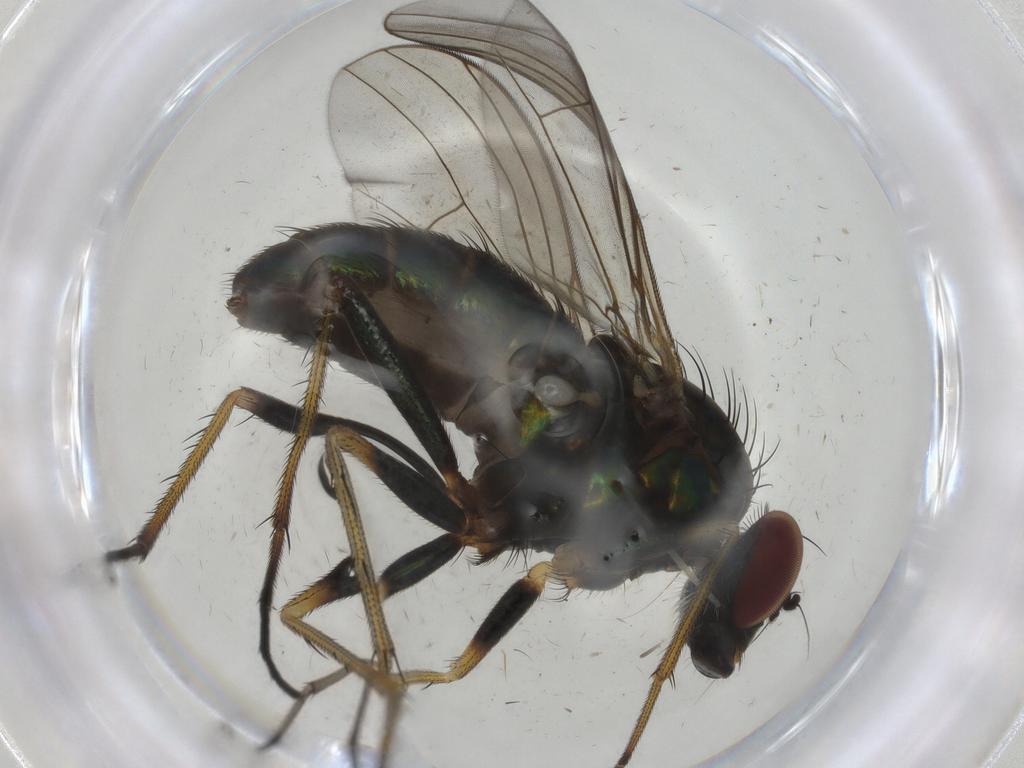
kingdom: Animalia
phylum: Arthropoda
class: Insecta
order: Diptera
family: Dolichopodidae
